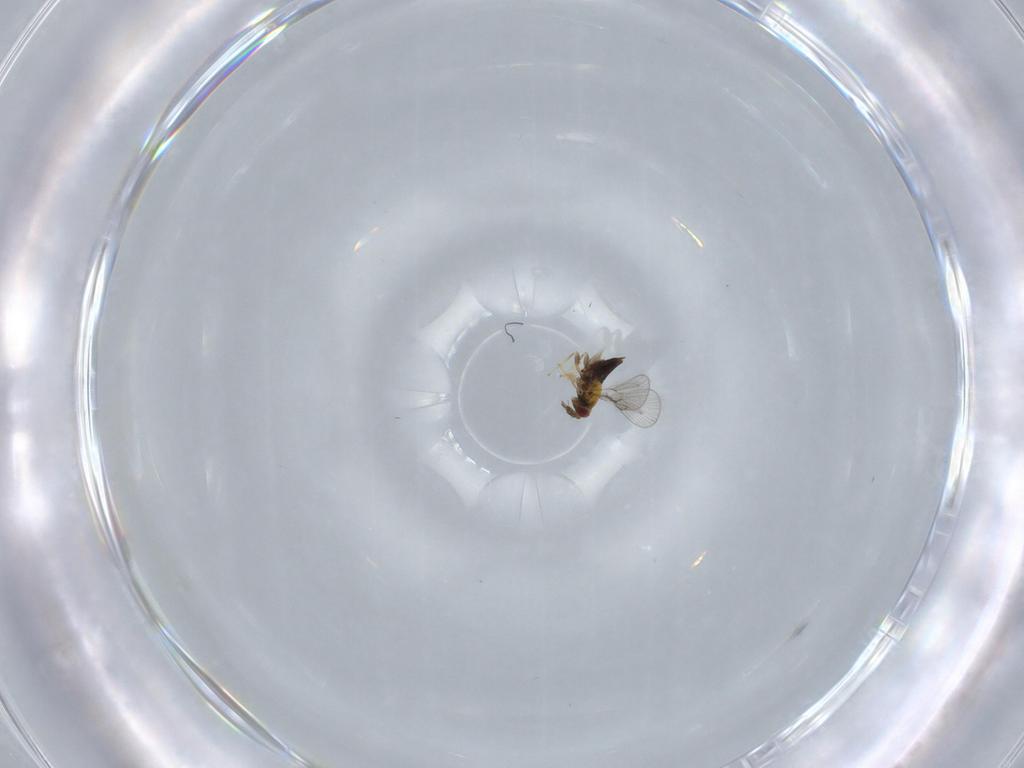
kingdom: Animalia
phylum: Arthropoda
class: Insecta
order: Hymenoptera
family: Trichogrammatidae
